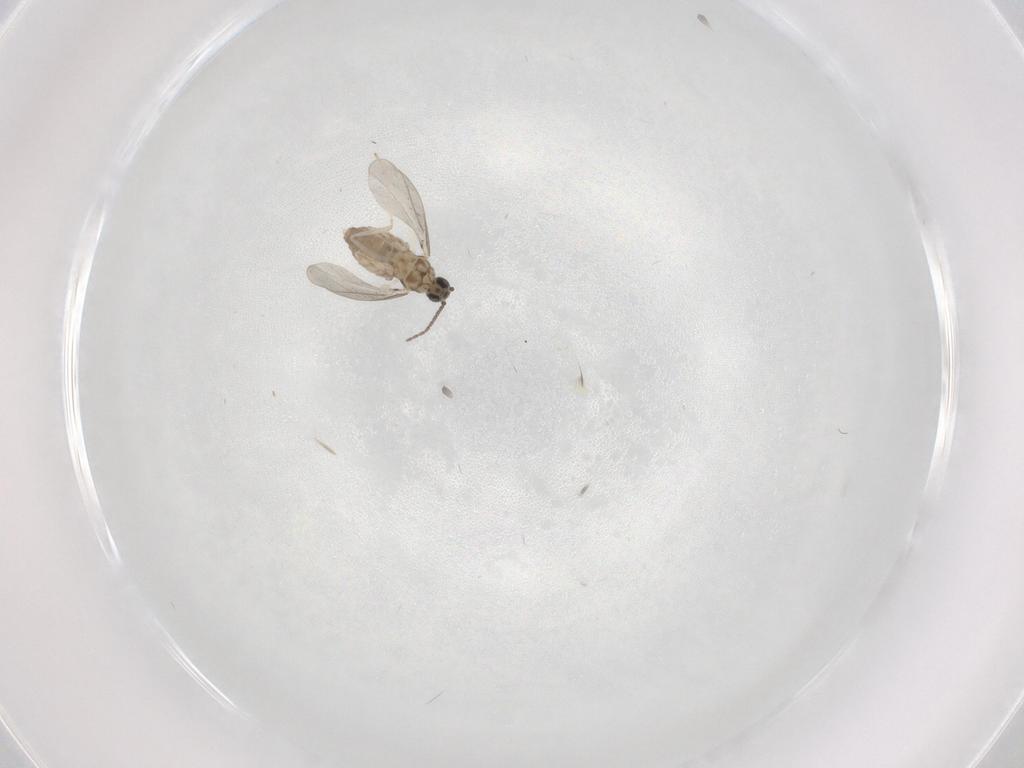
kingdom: Animalia
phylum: Arthropoda
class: Insecta
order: Diptera
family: Cecidomyiidae
